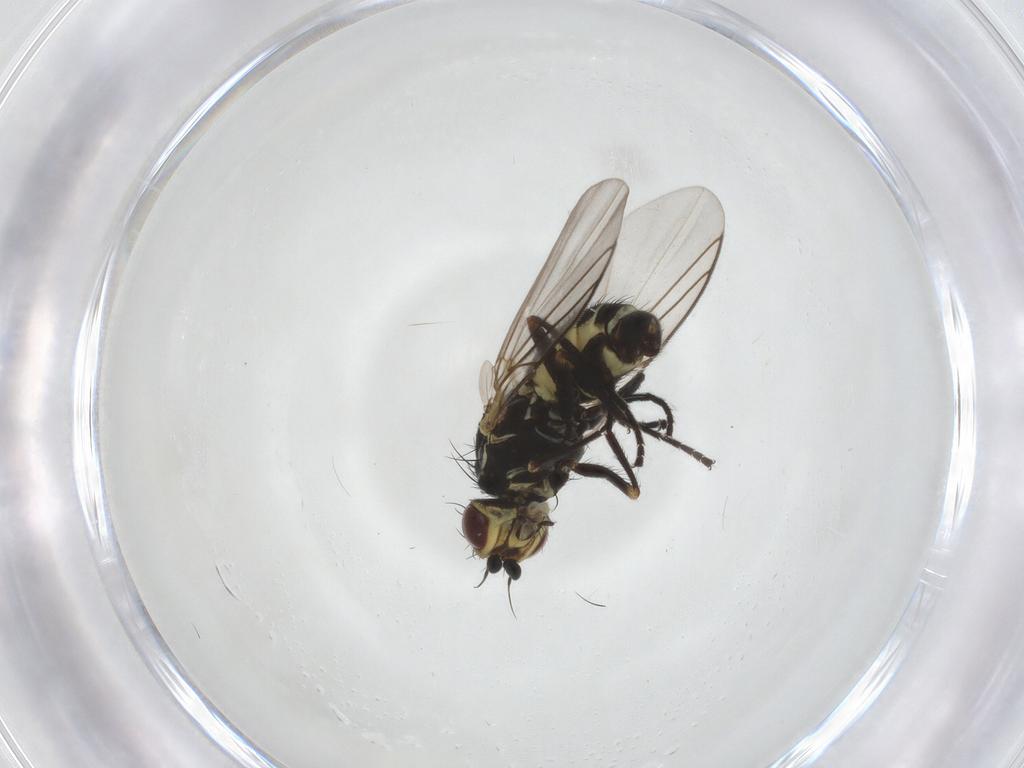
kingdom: Animalia
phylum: Arthropoda
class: Insecta
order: Diptera
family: Agromyzidae
